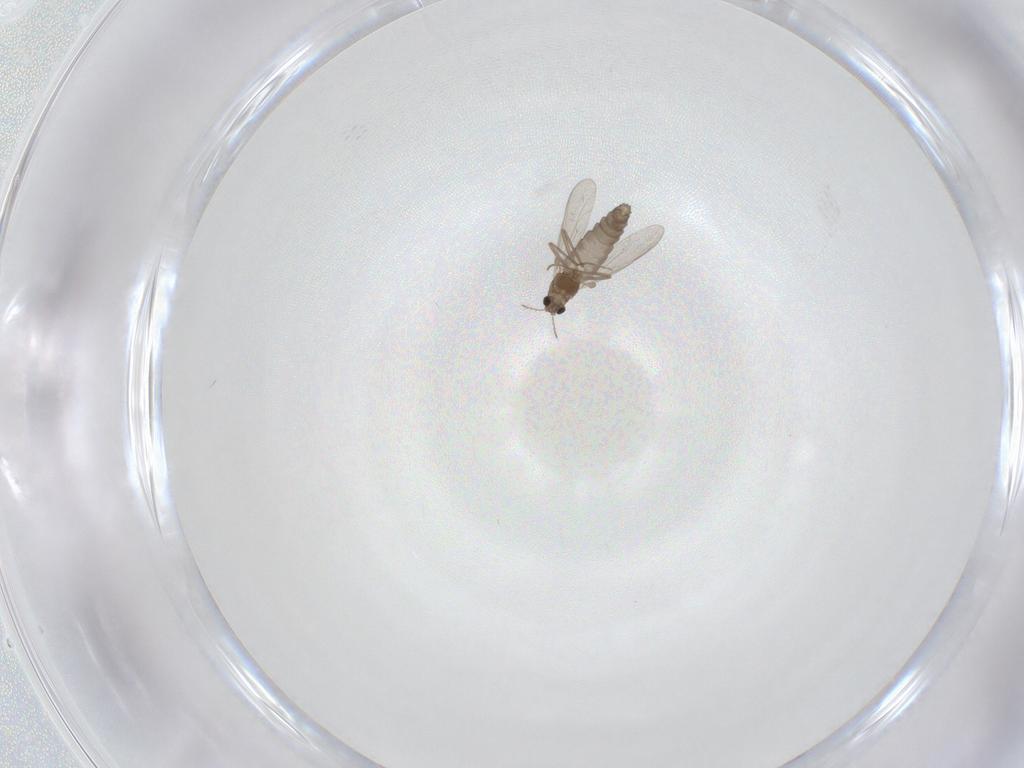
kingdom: Animalia
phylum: Arthropoda
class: Insecta
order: Diptera
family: Chironomidae
